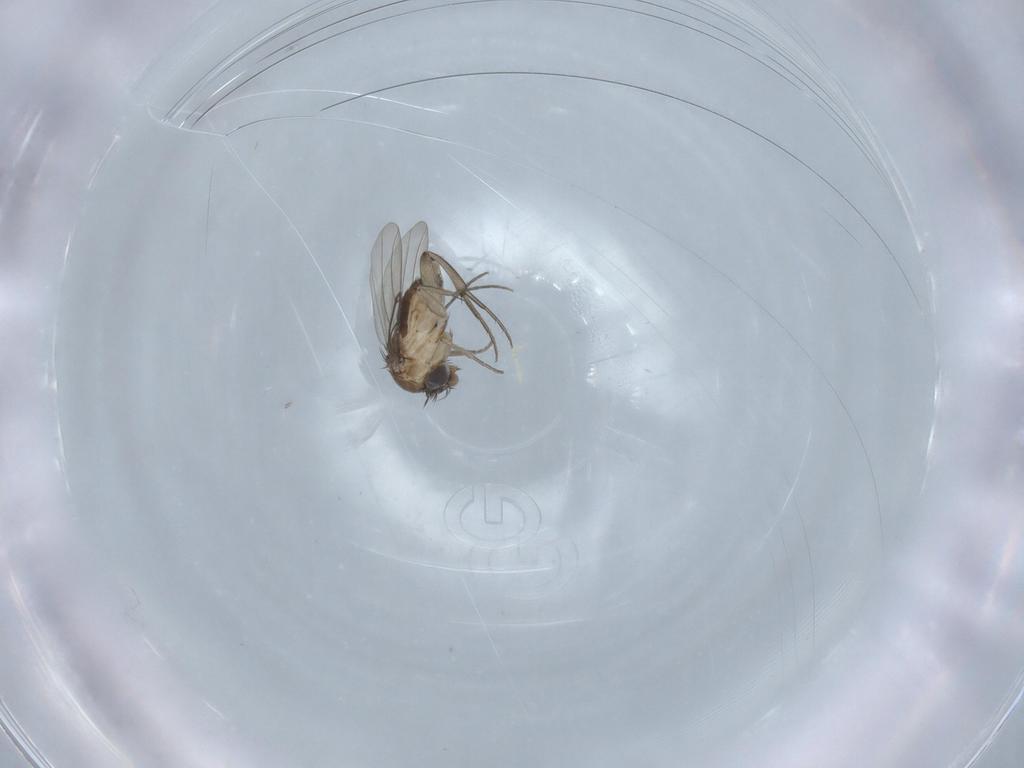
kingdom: Animalia
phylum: Arthropoda
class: Insecta
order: Diptera
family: Phoridae
